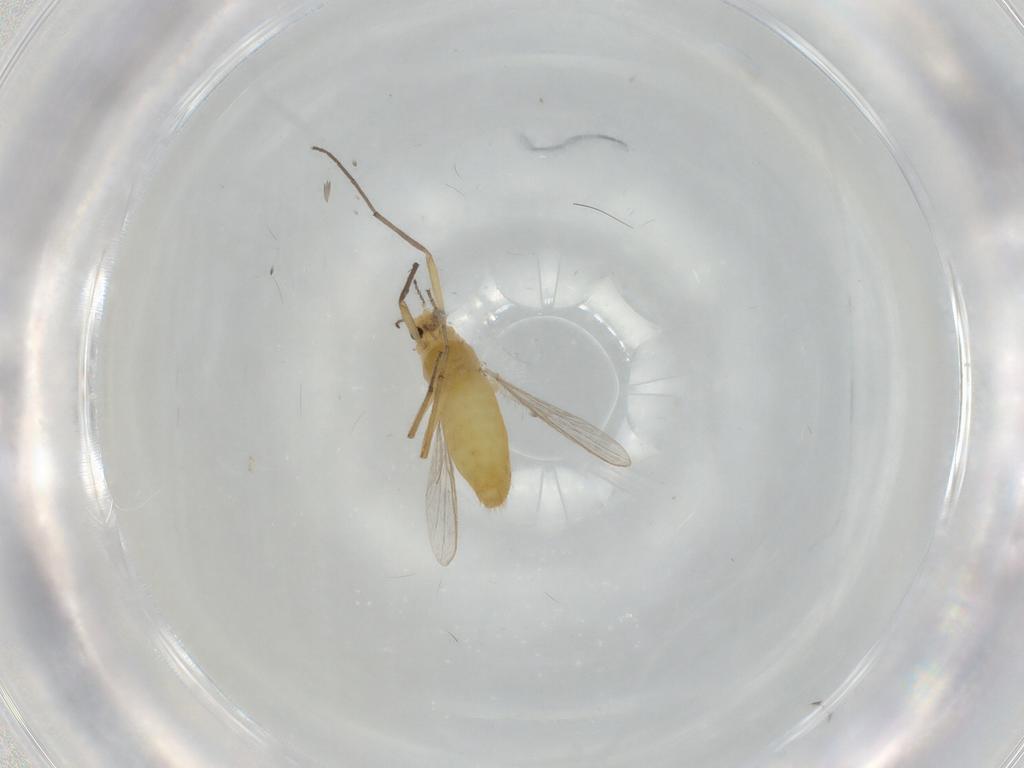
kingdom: Animalia
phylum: Arthropoda
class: Insecta
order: Diptera
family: Chironomidae
